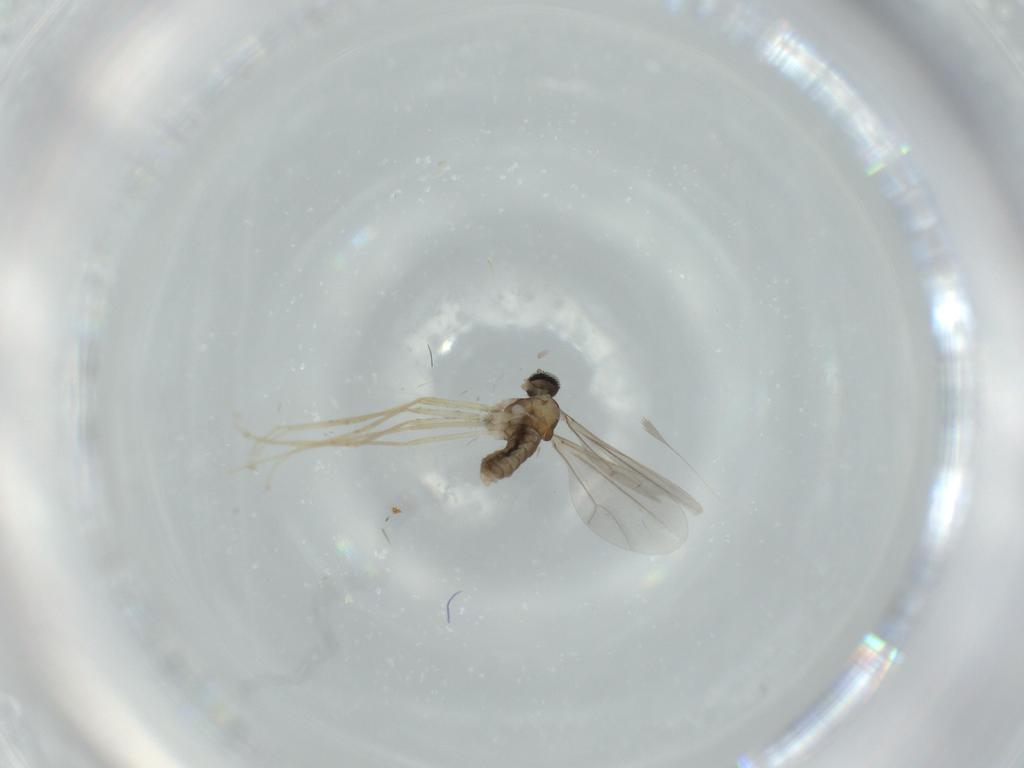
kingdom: Animalia
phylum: Arthropoda
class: Insecta
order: Diptera
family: Cecidomyiidae
